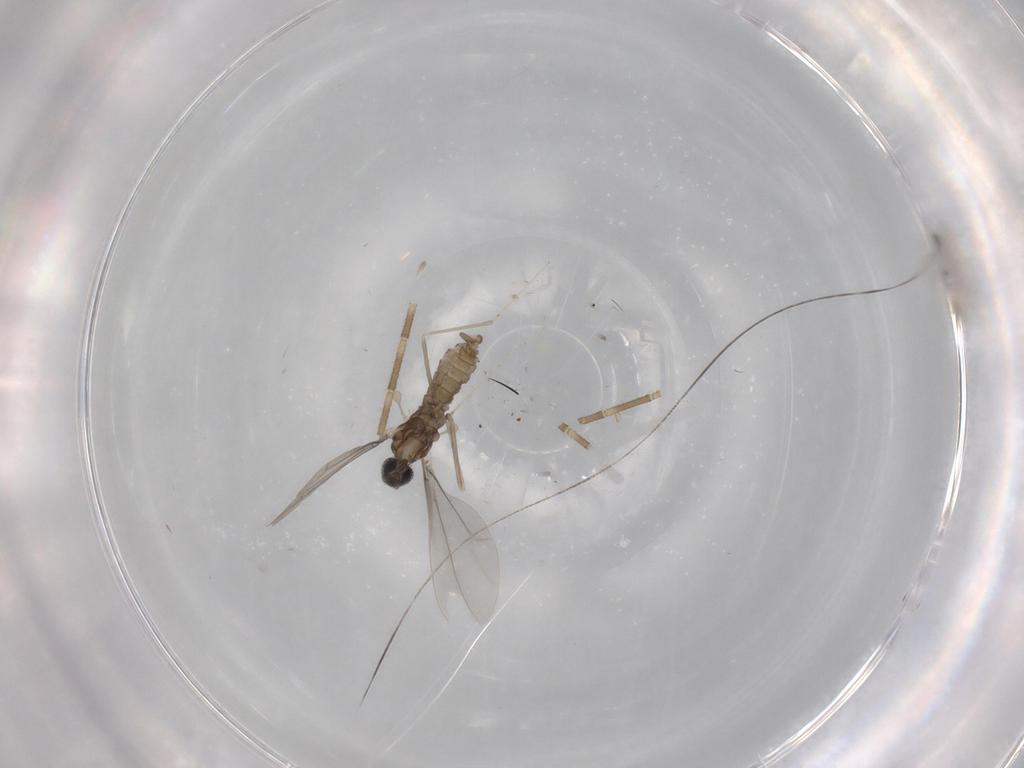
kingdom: Animalia
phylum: Arthropoda
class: Insecta
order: Diptera
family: Cecidomyiidae
